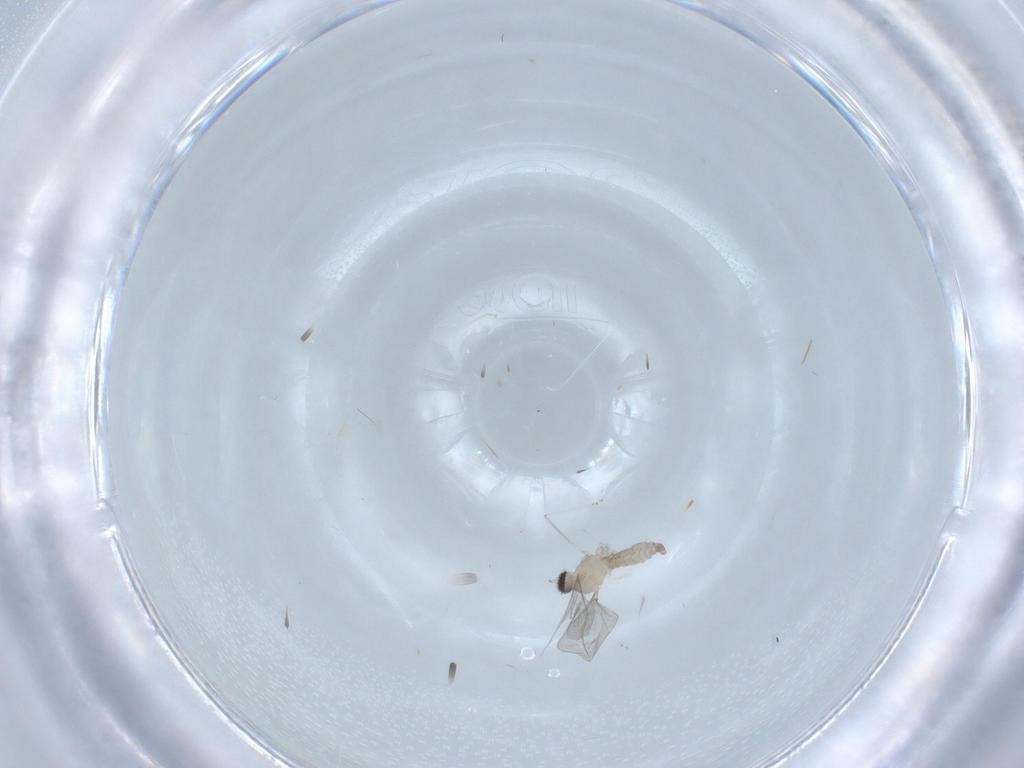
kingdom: Animalia
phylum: Arthropoda
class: Insecta
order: Diptera
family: Cecidomyiidae
